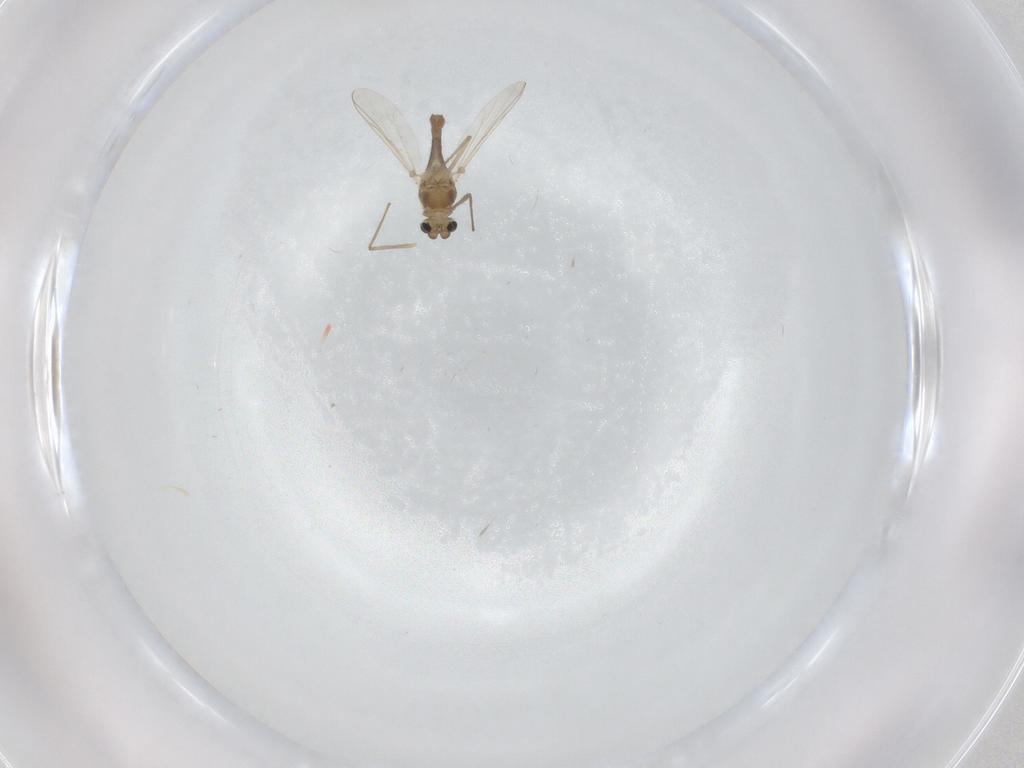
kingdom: Animalia
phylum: Arthropoda
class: Insecta
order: Diptera
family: Chironomidae
